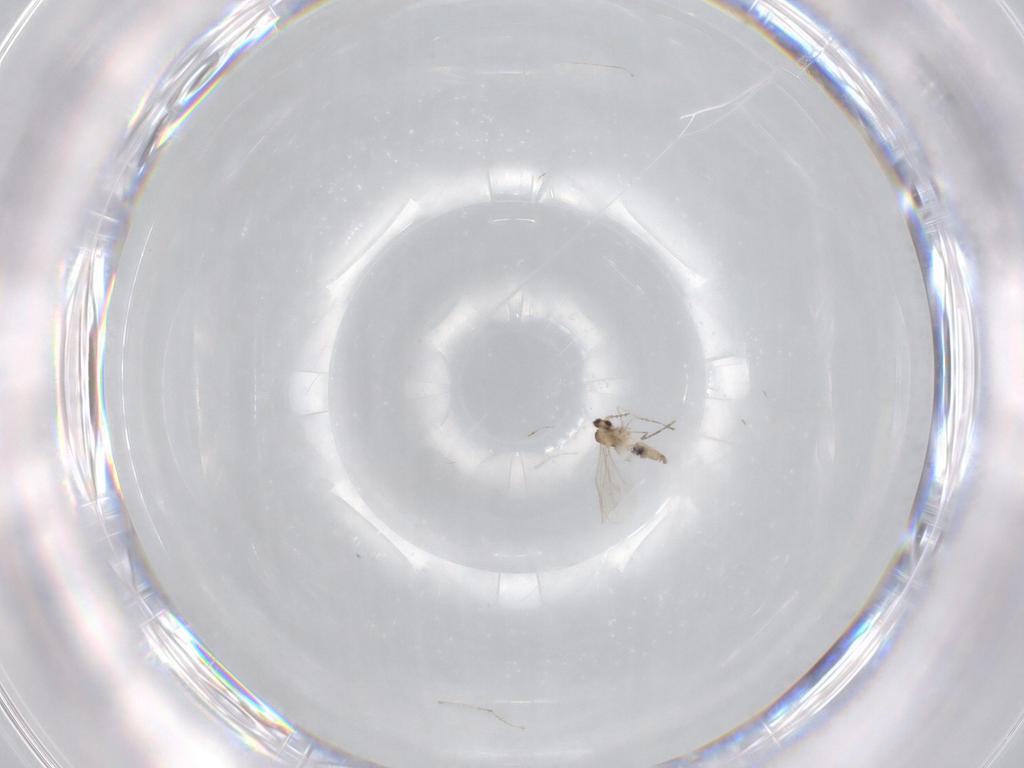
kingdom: Animalia
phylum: Arthropoda
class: Insecta
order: Diptera
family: Cecidomyiidae
